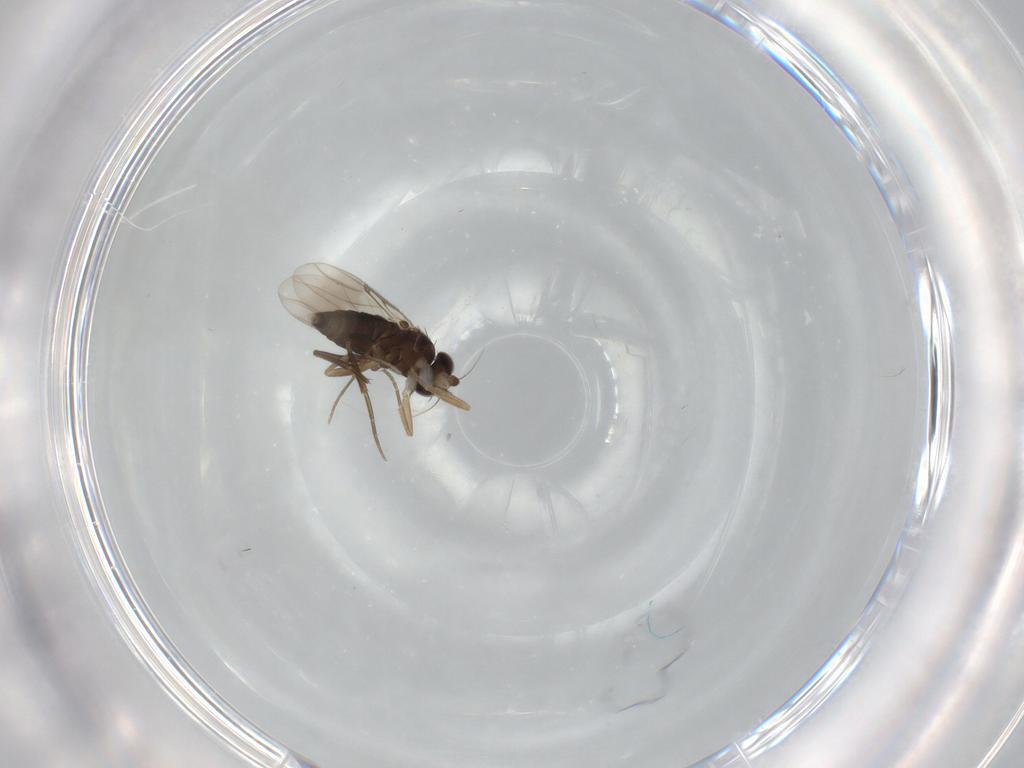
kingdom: Animalia
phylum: Arthropoda
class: Insecta
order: Diptera
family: Phoridae
